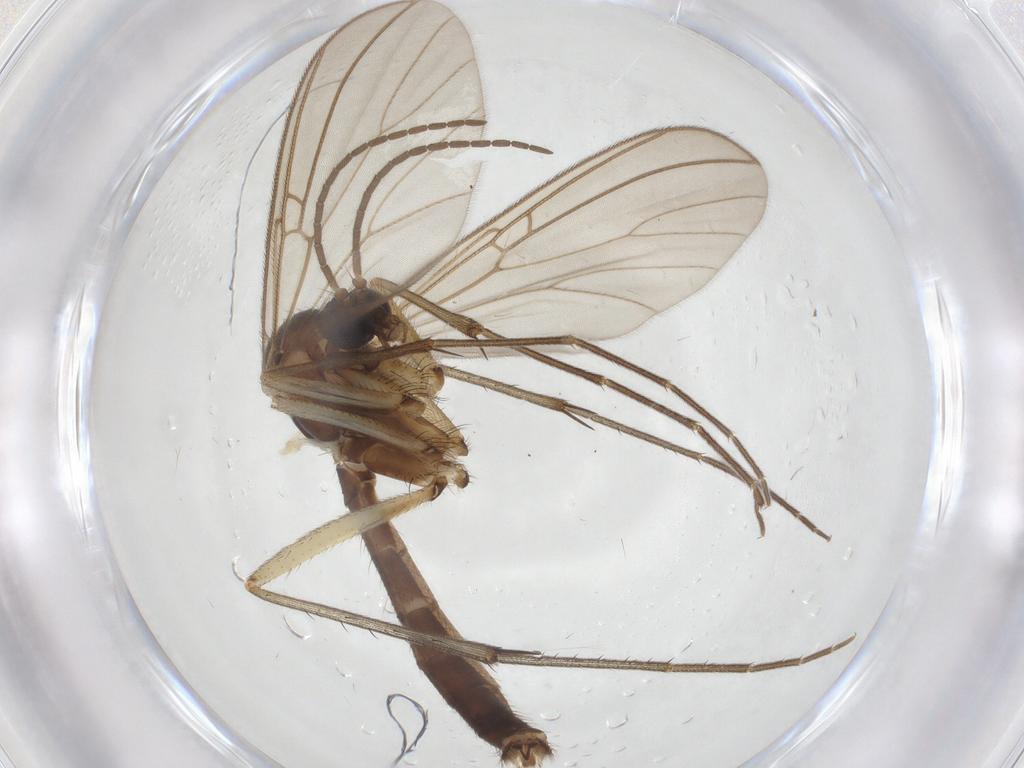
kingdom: Animalia
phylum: Arthropoda
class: Insecta
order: Diptera
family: Mycetophilidae
